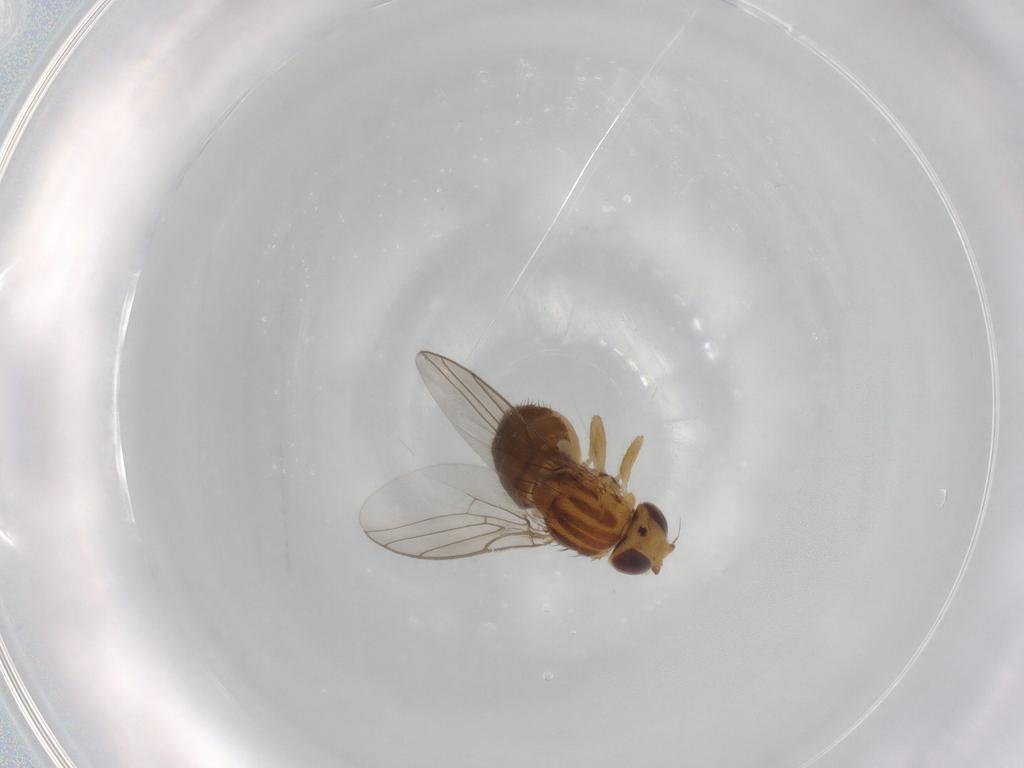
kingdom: Animalia
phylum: Arthropoda
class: Insecta
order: Diptera
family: Chloropidae
